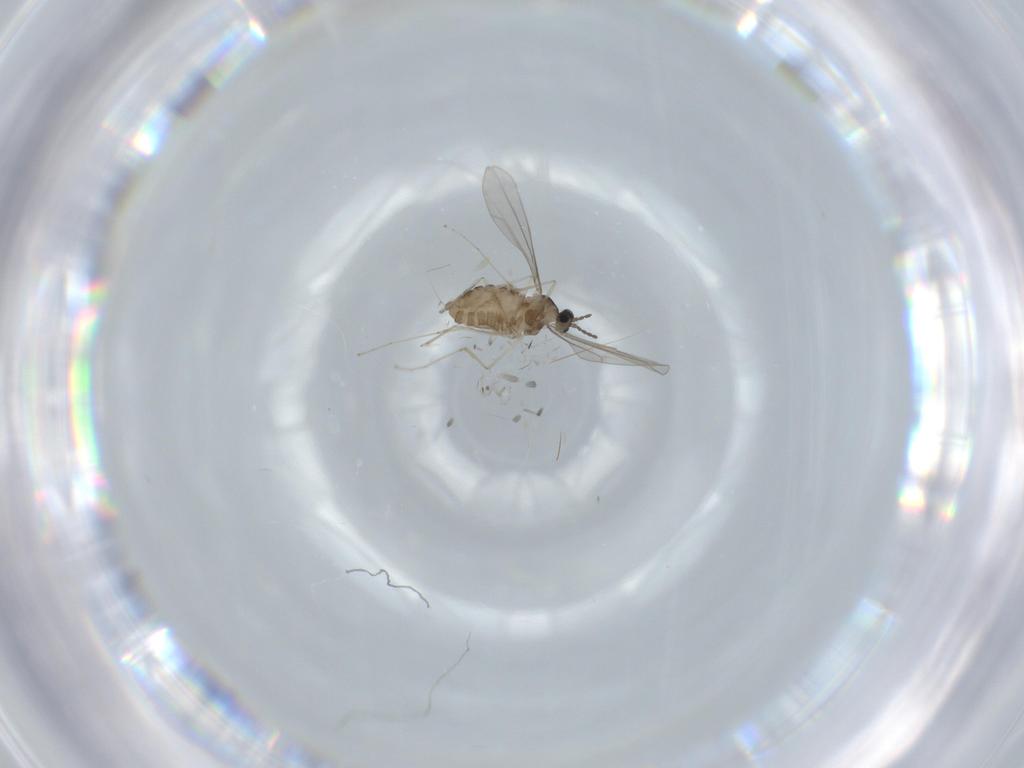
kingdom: Animalia
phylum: Arthropoda
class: Insecta
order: Diptera
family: Cecidomyiidae
